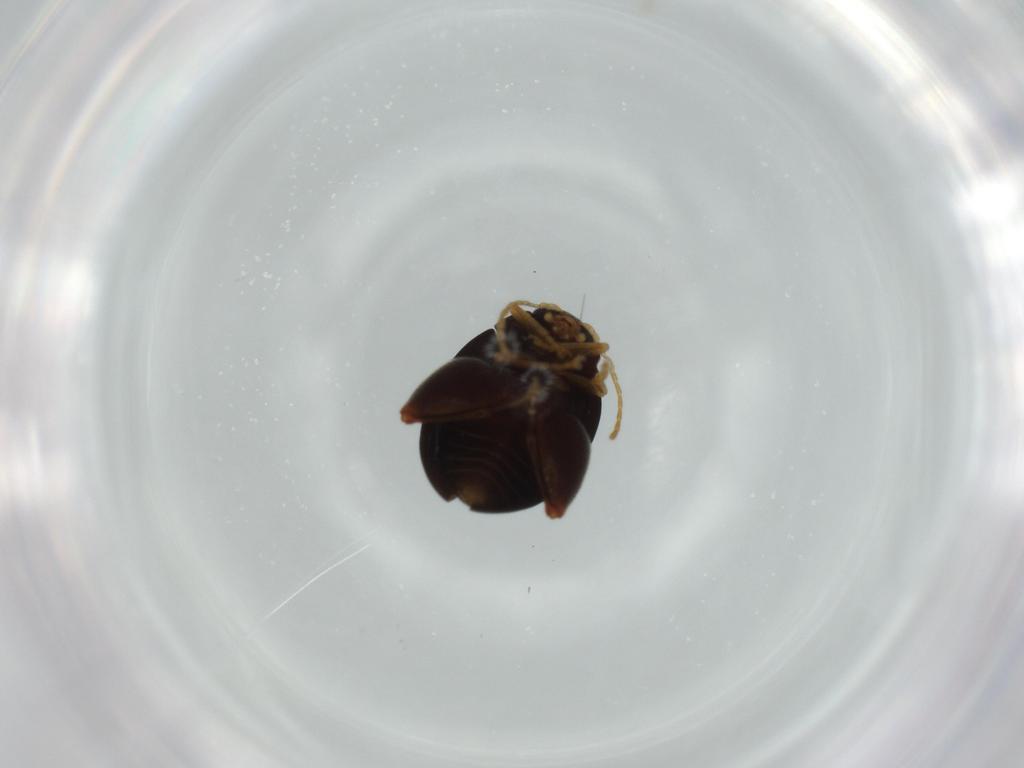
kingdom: Animalia
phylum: Arthropoda
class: Insecta
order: Coleoptera
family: Chrysomelidae
